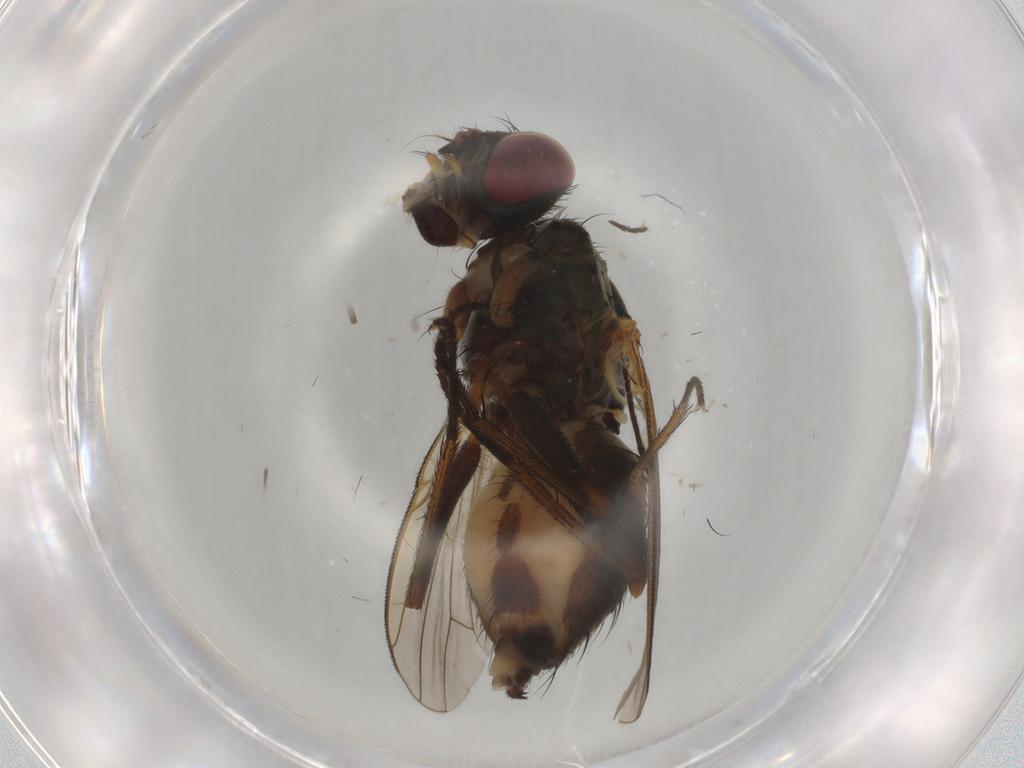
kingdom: Animalia
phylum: Arthropoda
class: Insecta
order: Diptera
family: Muscidae
